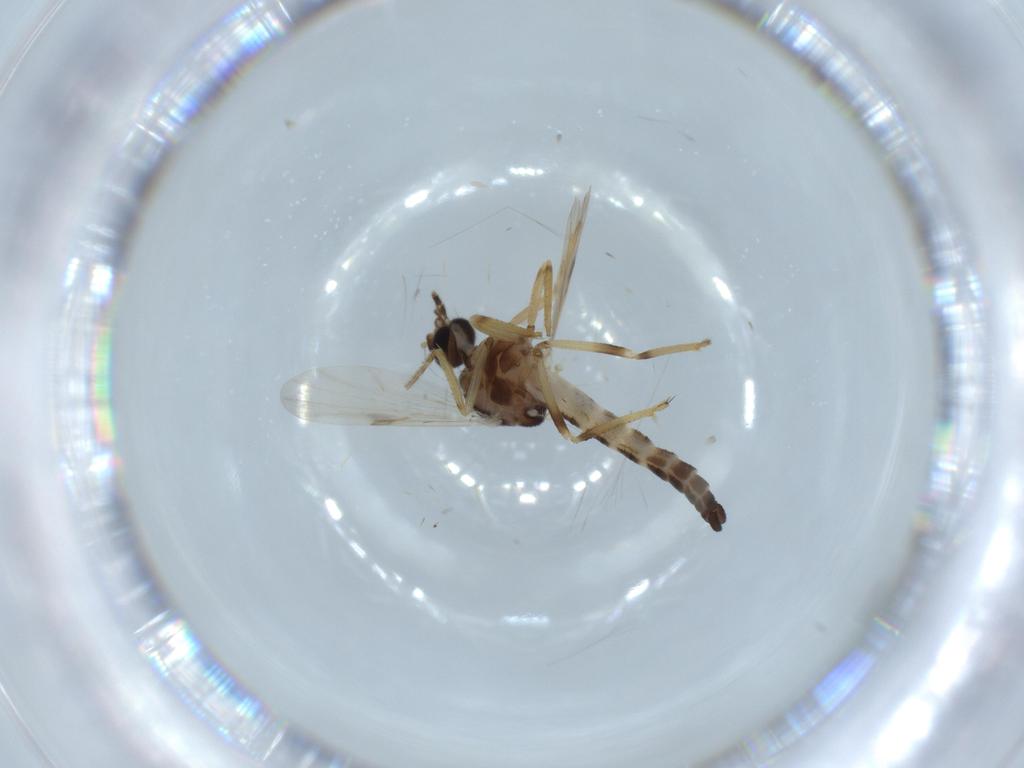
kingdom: Animalia
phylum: Arthropoda
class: Insecta
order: Diptera
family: Ceratopogonidae
